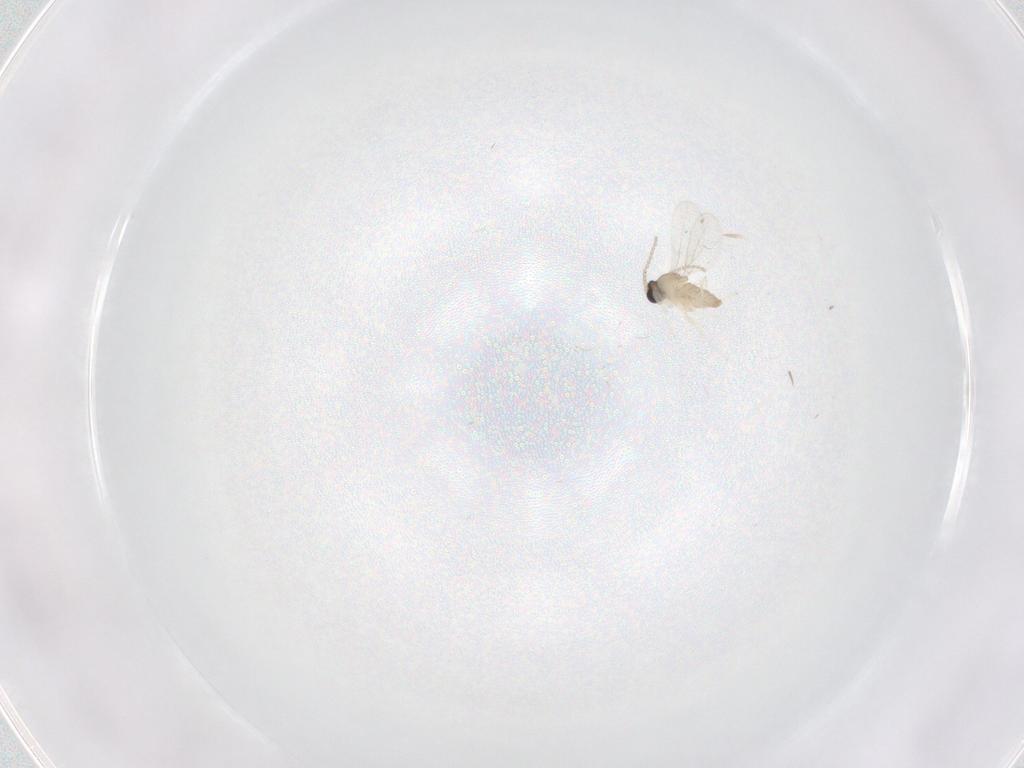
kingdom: Animalia
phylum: Arthropoda
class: Insecta
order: Diptera
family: Cecidomyiidae
